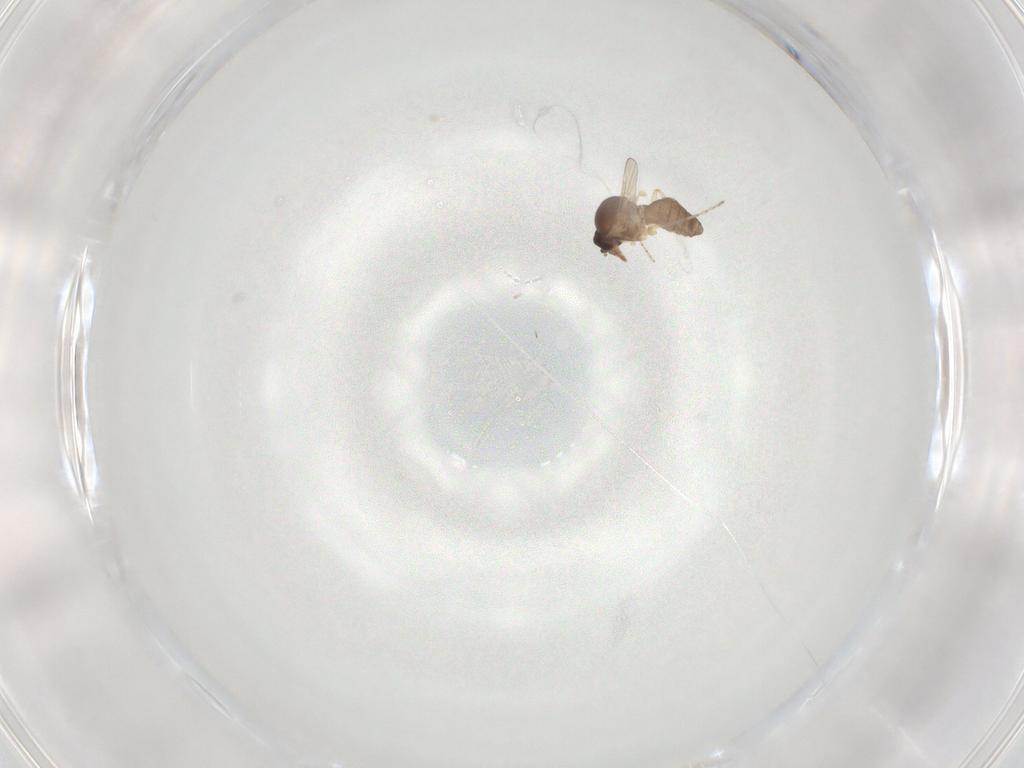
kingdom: Animalia
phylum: Arthropoda
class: Insecta
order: Diptera
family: Ceratopogonidae
